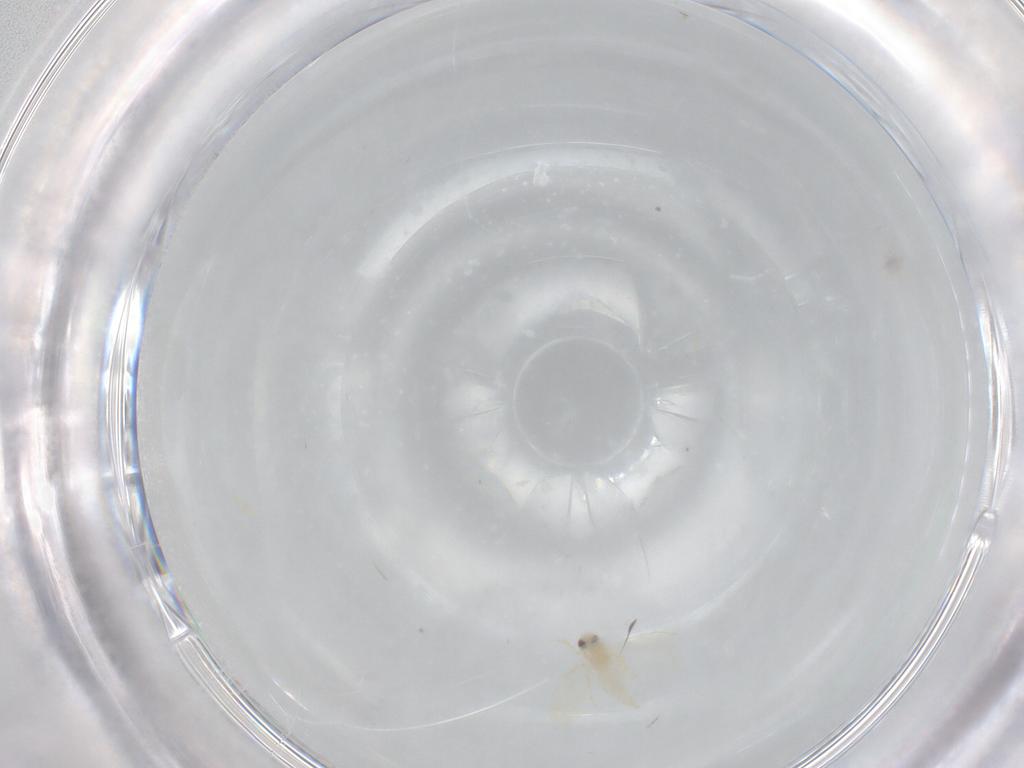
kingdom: Animalia
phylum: Arthropoda
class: Insecta
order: Hemiptera
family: Aleyrodidae
